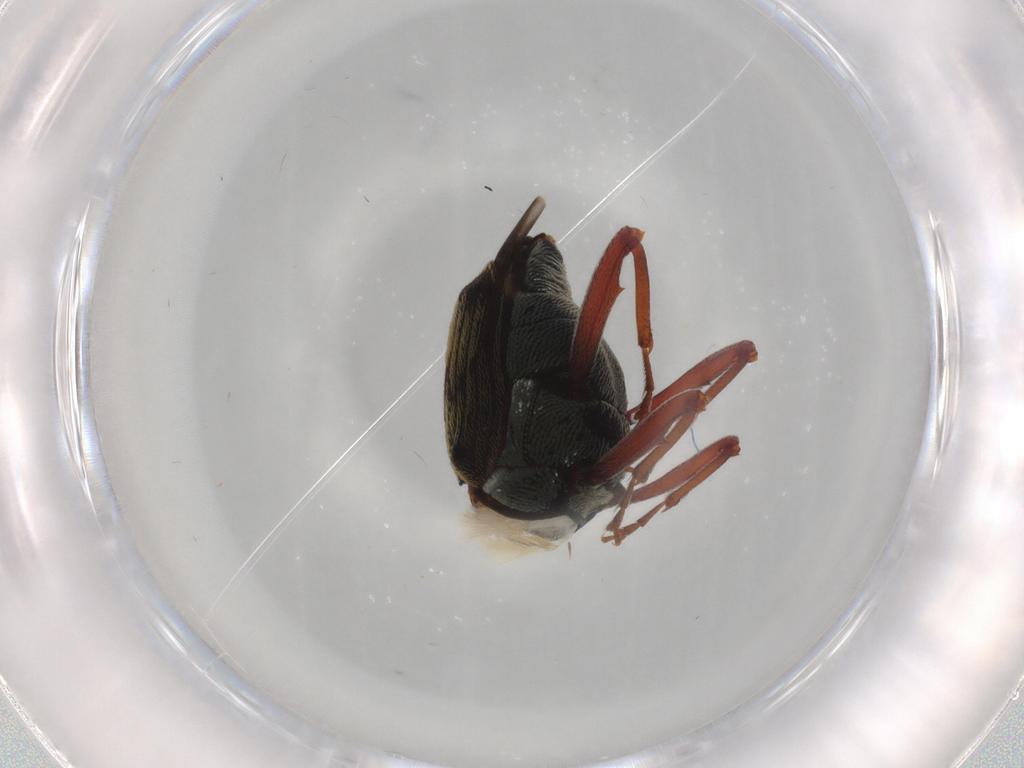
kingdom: Animalia
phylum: Arthropoda
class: Insecta
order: Coleoptera
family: Curculionidae
